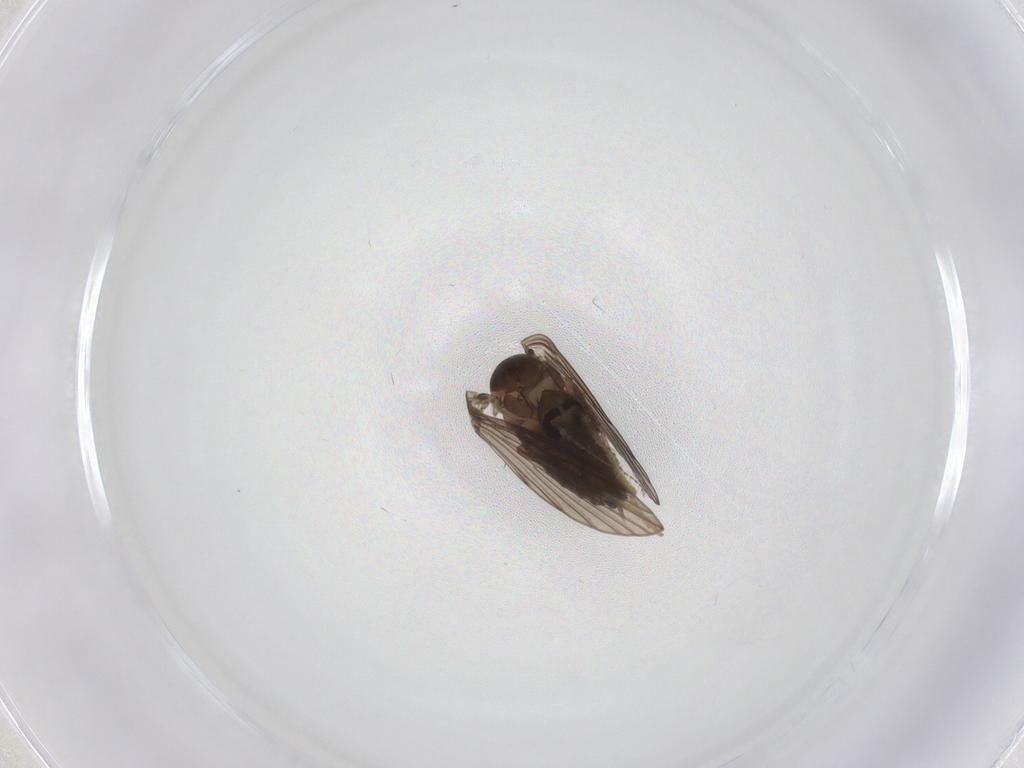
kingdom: Animalia
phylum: Arthropoda
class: Insecta
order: Diptera
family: Psychodidae
